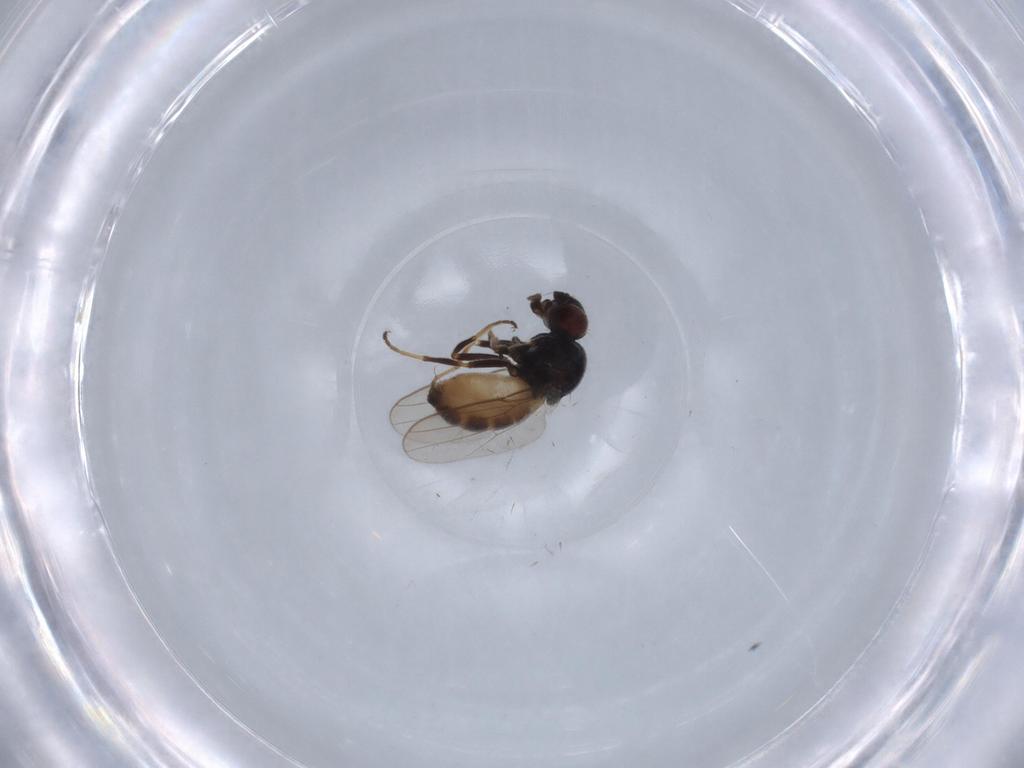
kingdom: Animalia
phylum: Arthropoda
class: Insecta
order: Diptera
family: Chloropidae
